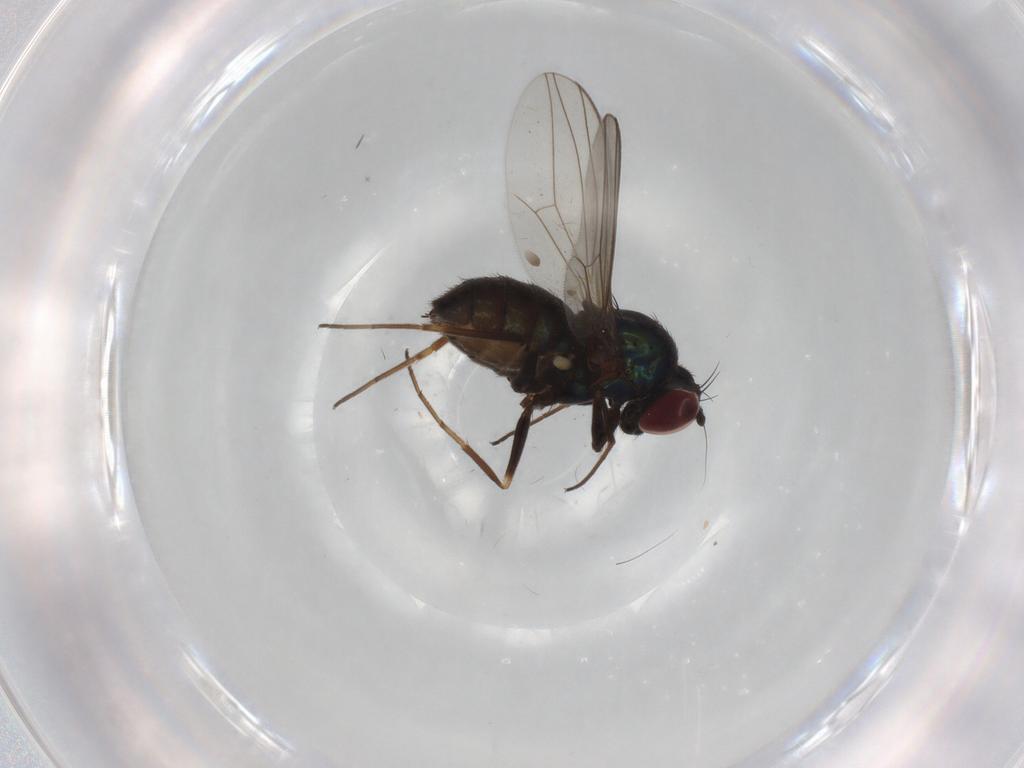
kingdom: Animalia
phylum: Arthropoda
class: Insecta
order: Diptera
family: Dolichopodidae
